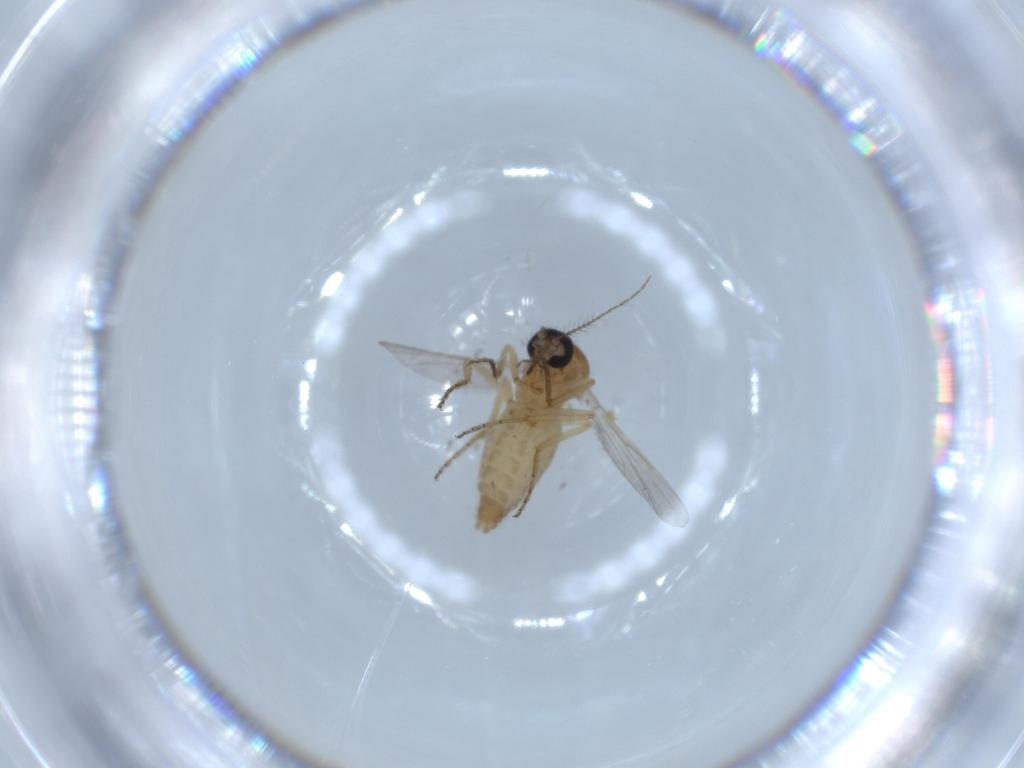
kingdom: Animalia
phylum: Arthropoda
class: Insecta
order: Diptera
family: Ceratopogonidae
